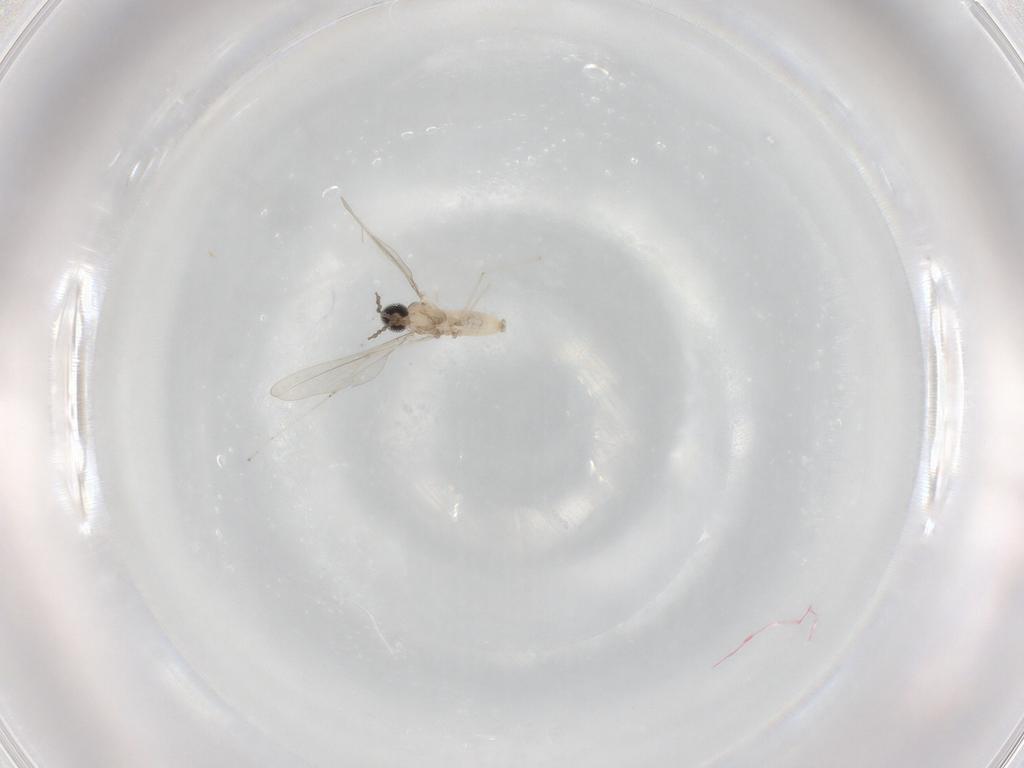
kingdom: Animalia
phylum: Arthropoda
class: Insecta
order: Diptera
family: Cecidomyiidae
